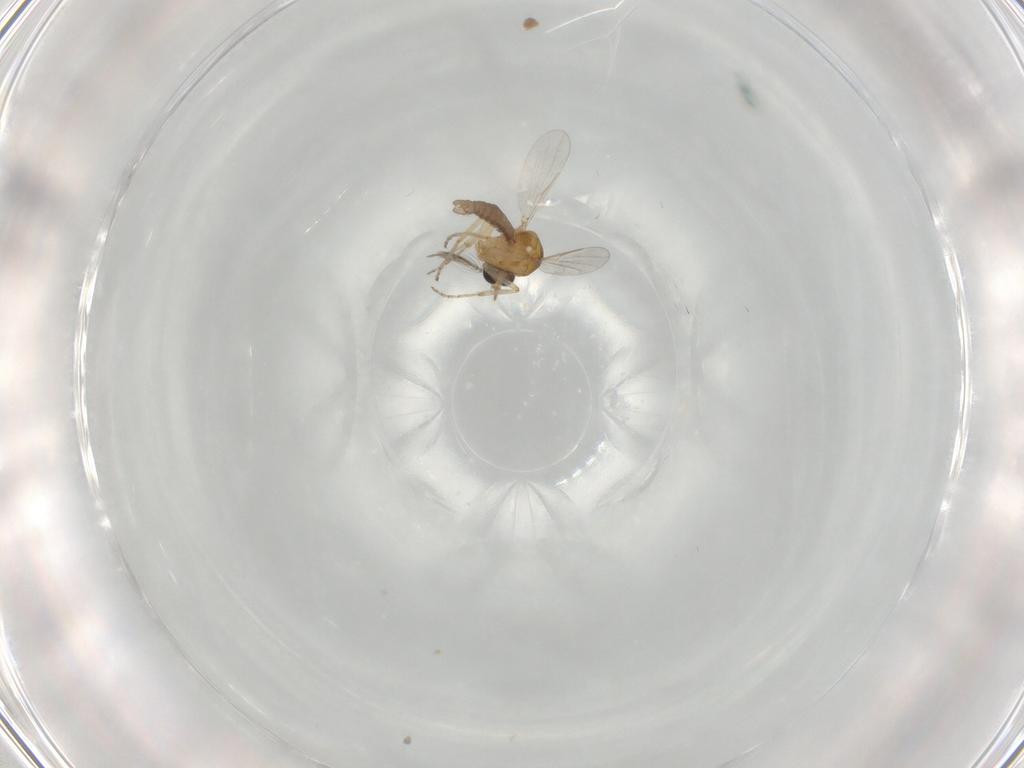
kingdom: Animalia
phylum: Arthropoda
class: Insecta
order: Diptera
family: Ceratopogonidae
